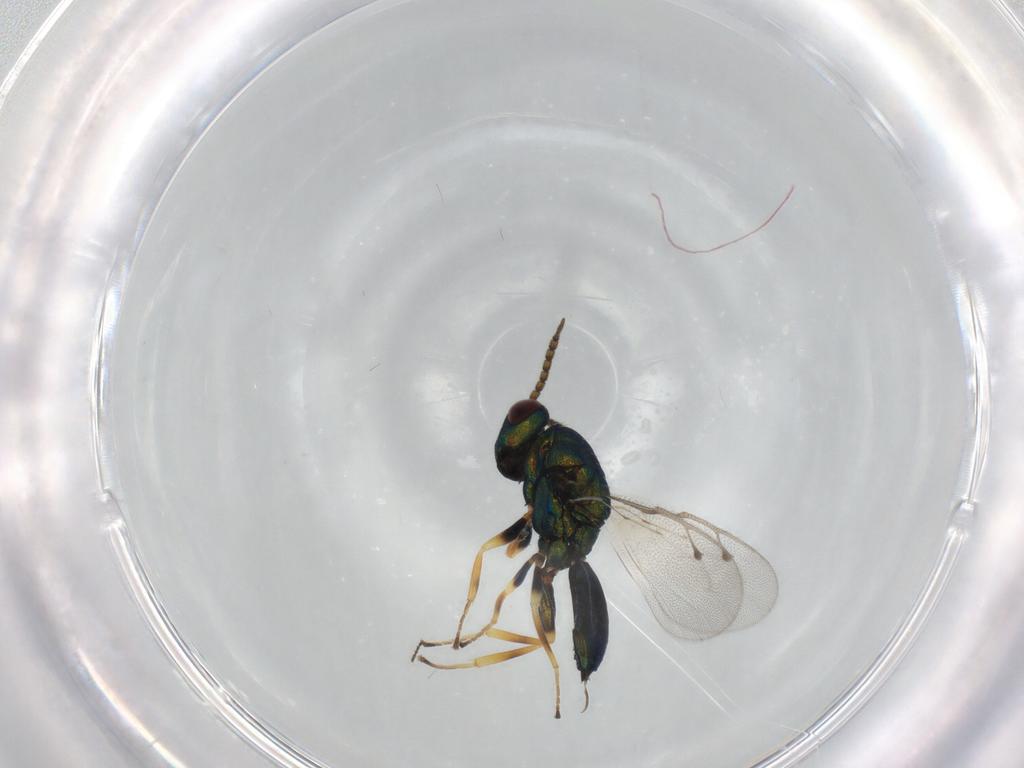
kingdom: Animalia
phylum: Arthropoda
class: Insecta
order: Hymenoptera
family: Pteromalidae
